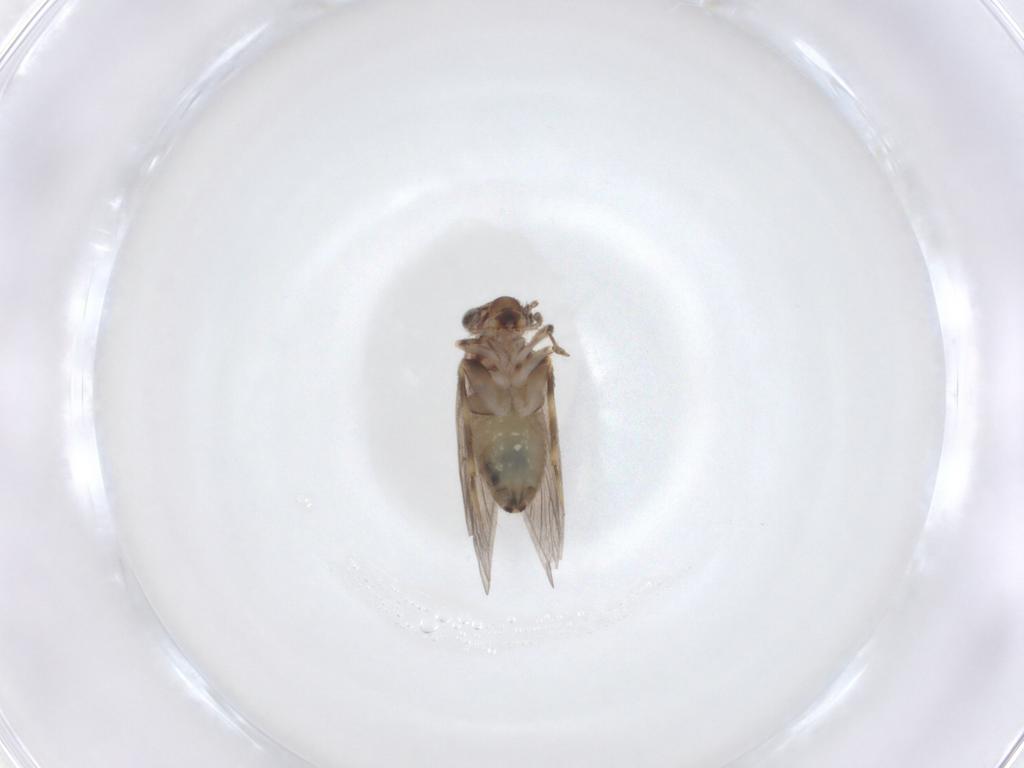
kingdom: Animalia
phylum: Arthropoda
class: Insecta
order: Psocodea
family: Lepidopsocidae
